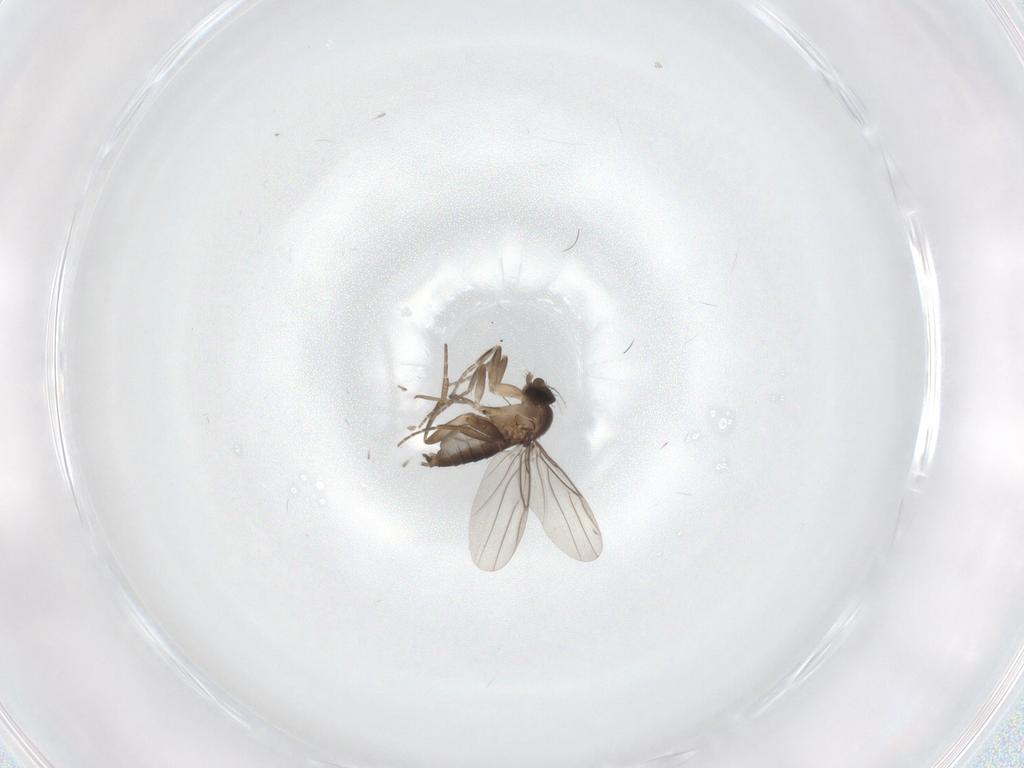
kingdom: Animalia
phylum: Arthropoda
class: Insecta
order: Diptera
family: Phoridae
